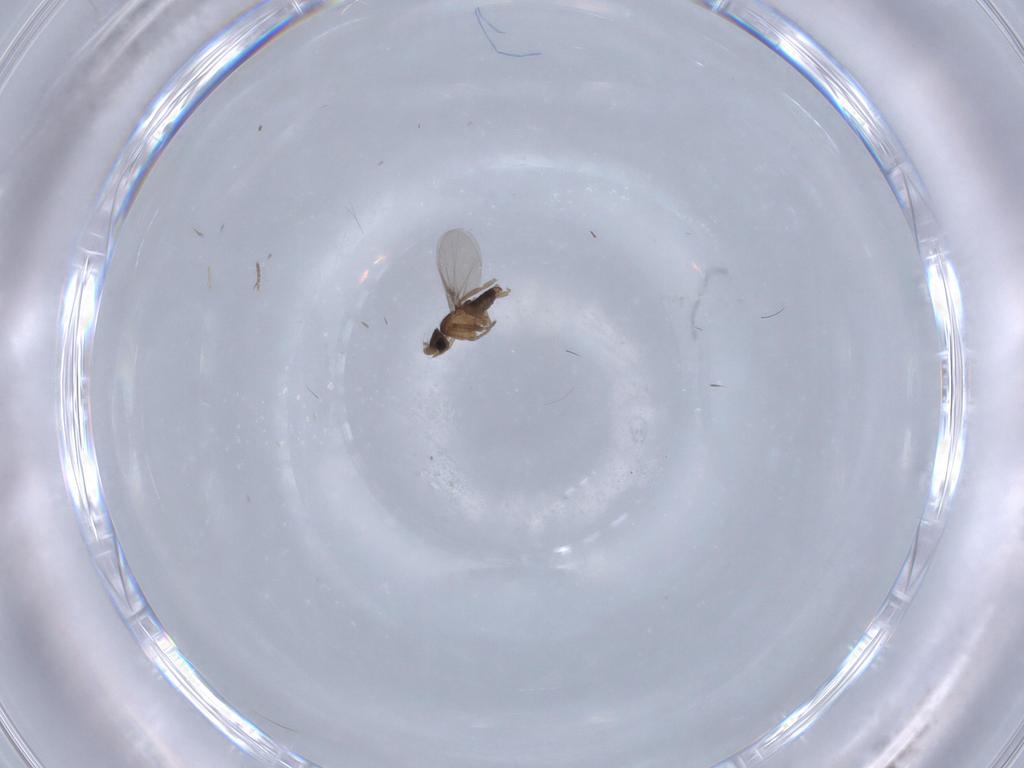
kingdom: Animalia
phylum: Arthropoda
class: Insecta
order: Diptera
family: Phoridae
